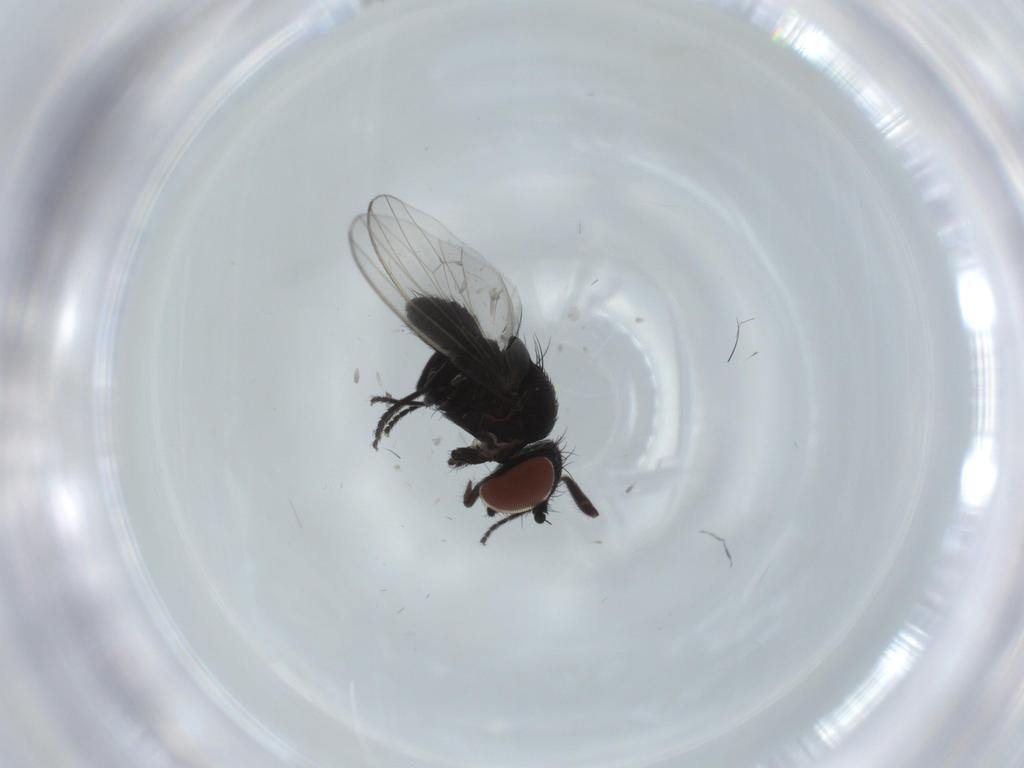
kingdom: Animalia
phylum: Arthropoda
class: Insecta
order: Diptera
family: Milichiidae
